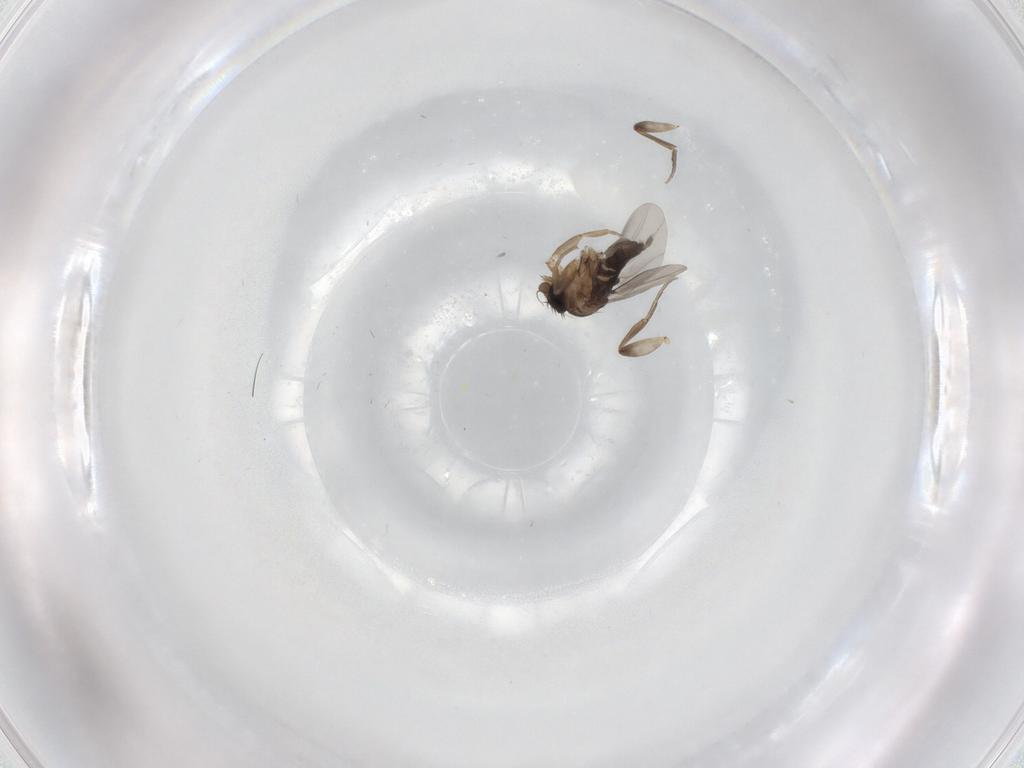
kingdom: Animalia
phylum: Arthropoda
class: Insecta
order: Diptera
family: Phoridae
